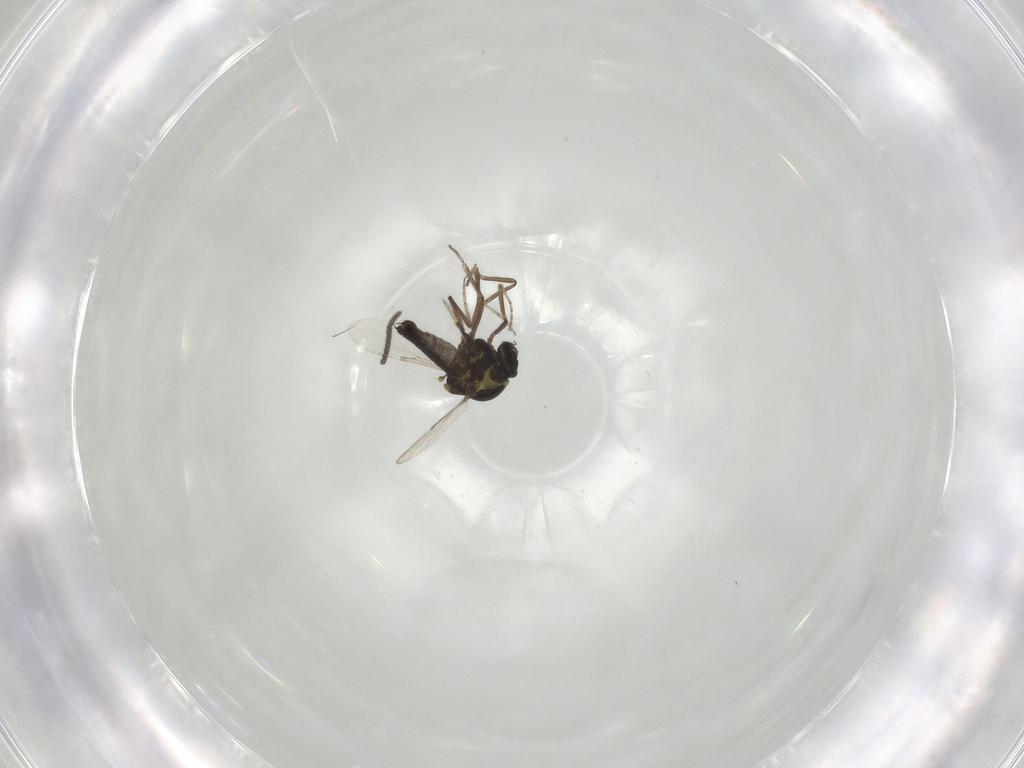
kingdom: Animalia
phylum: Arthropoda
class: Insecta
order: Diptera
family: Ceratopogonidae
